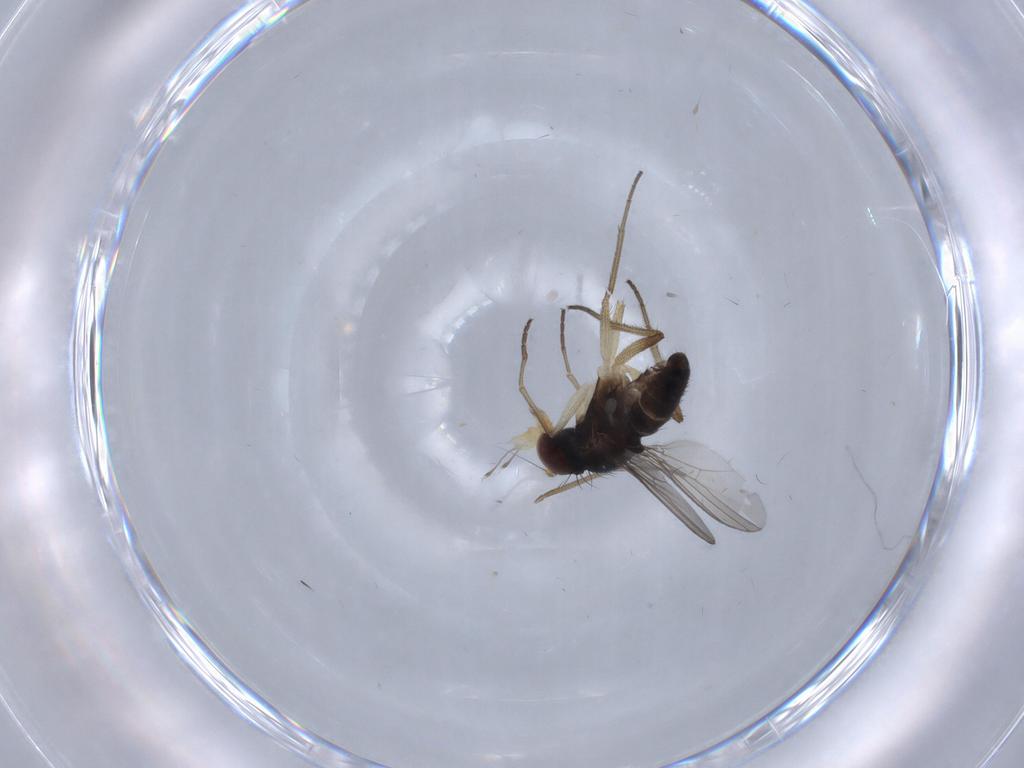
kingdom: Animalia
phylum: Arthropoda
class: Insecta
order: Diptera
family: Dolichopodidae
